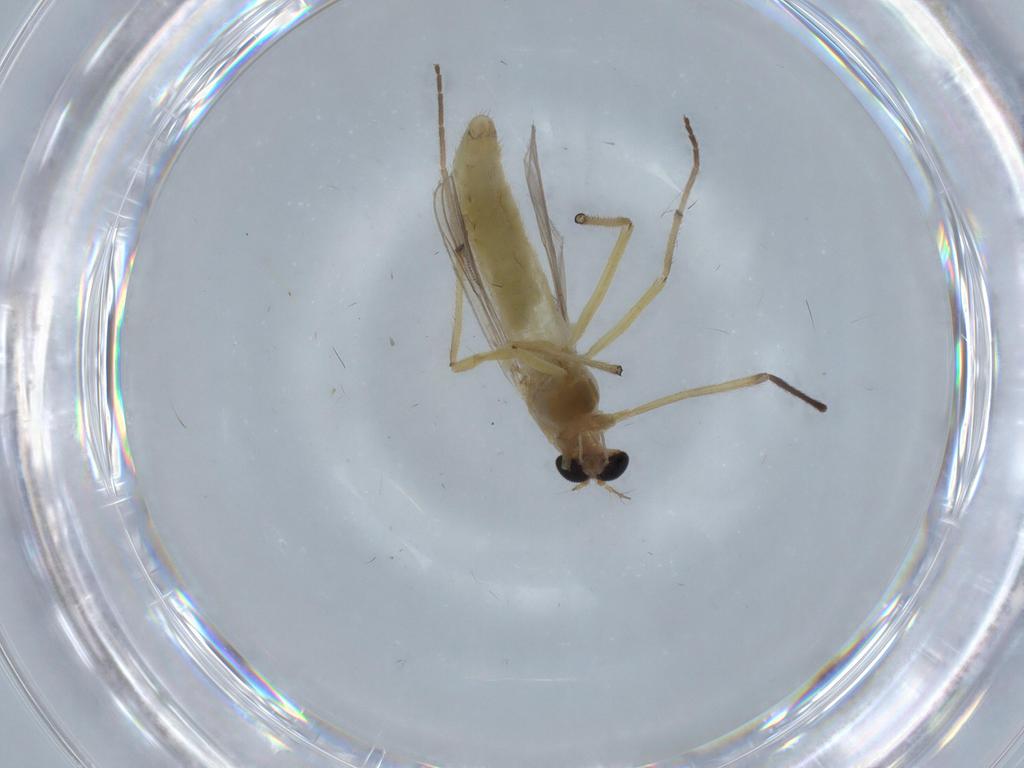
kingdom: Animalia
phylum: Arthropoda
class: Insecta
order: Diptera
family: Chironomidae
